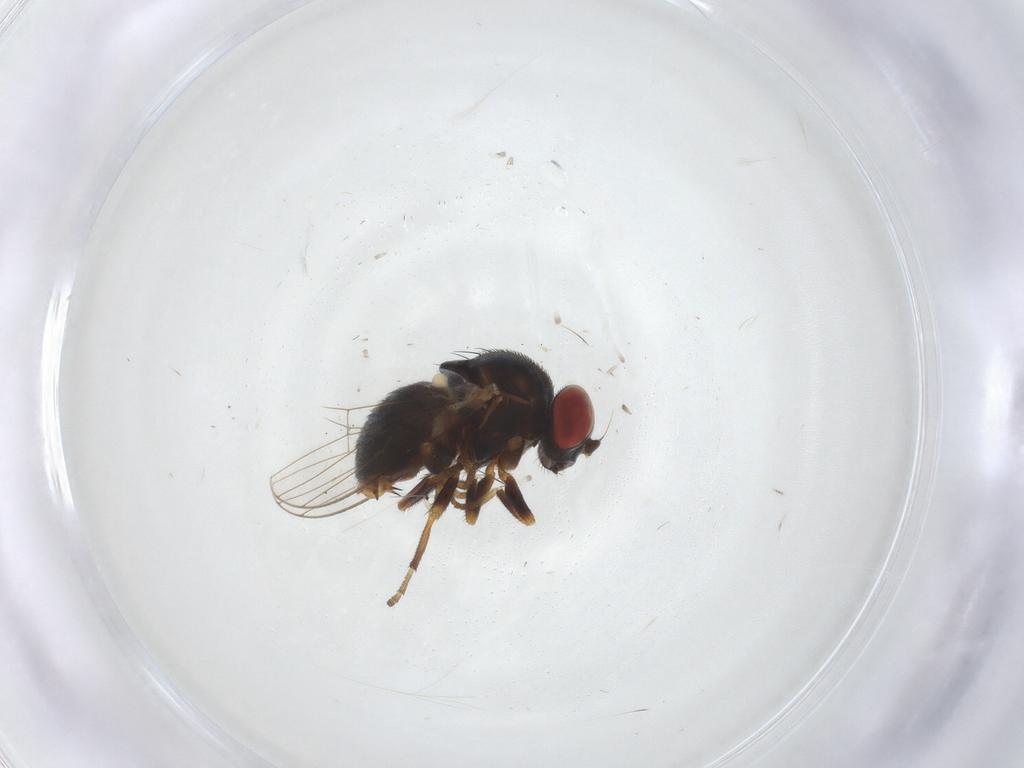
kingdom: Animalia
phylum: Arthropoda
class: Insecta
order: Diptera
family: Chamaemyiidae
